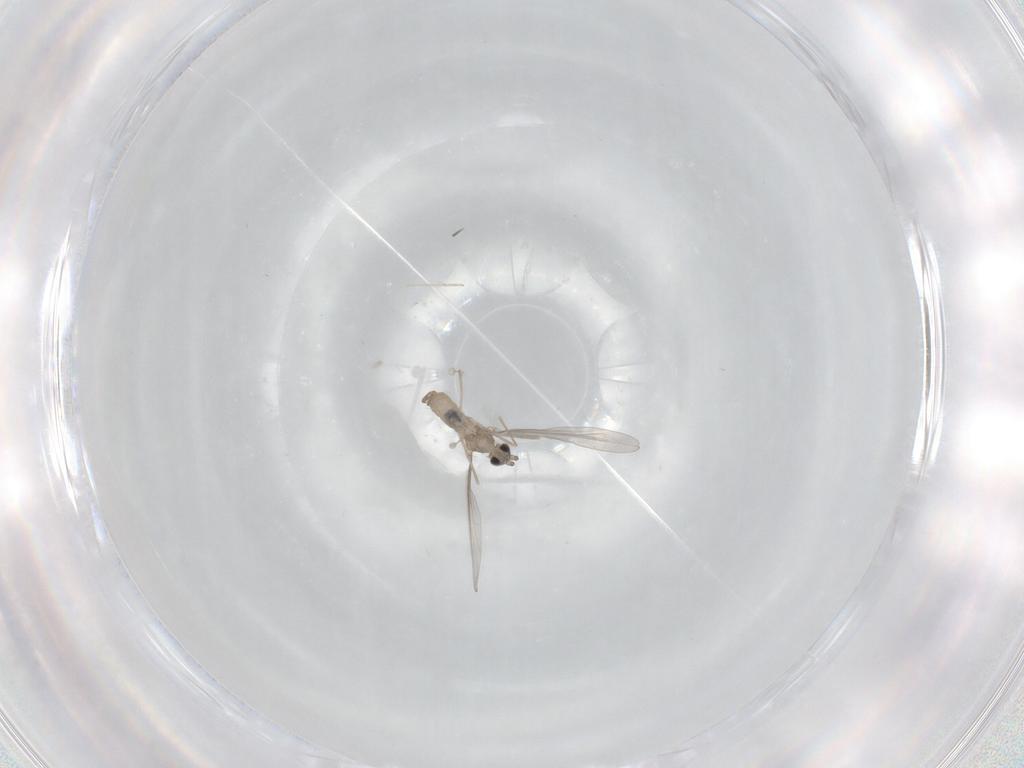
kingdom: Animalia
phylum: Arthropoda
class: Insecta
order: Diptera
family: Cecidomyiidae
